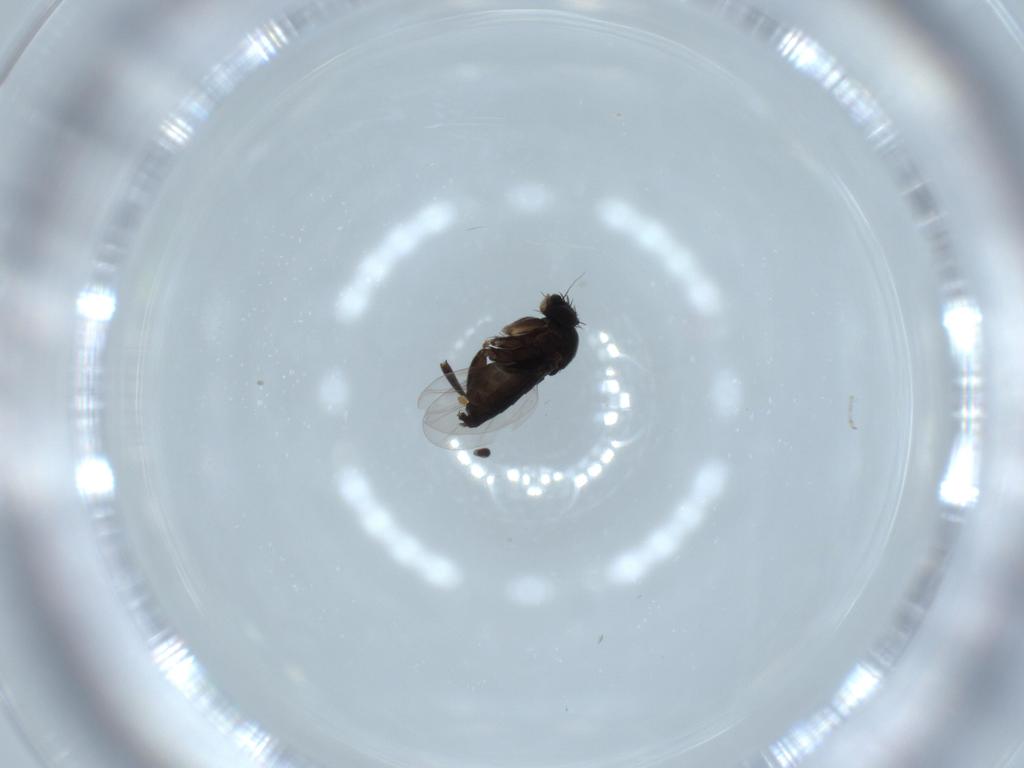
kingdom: Animalia
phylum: Arthropoda
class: Insecta
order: Diptera
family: Phoridae
